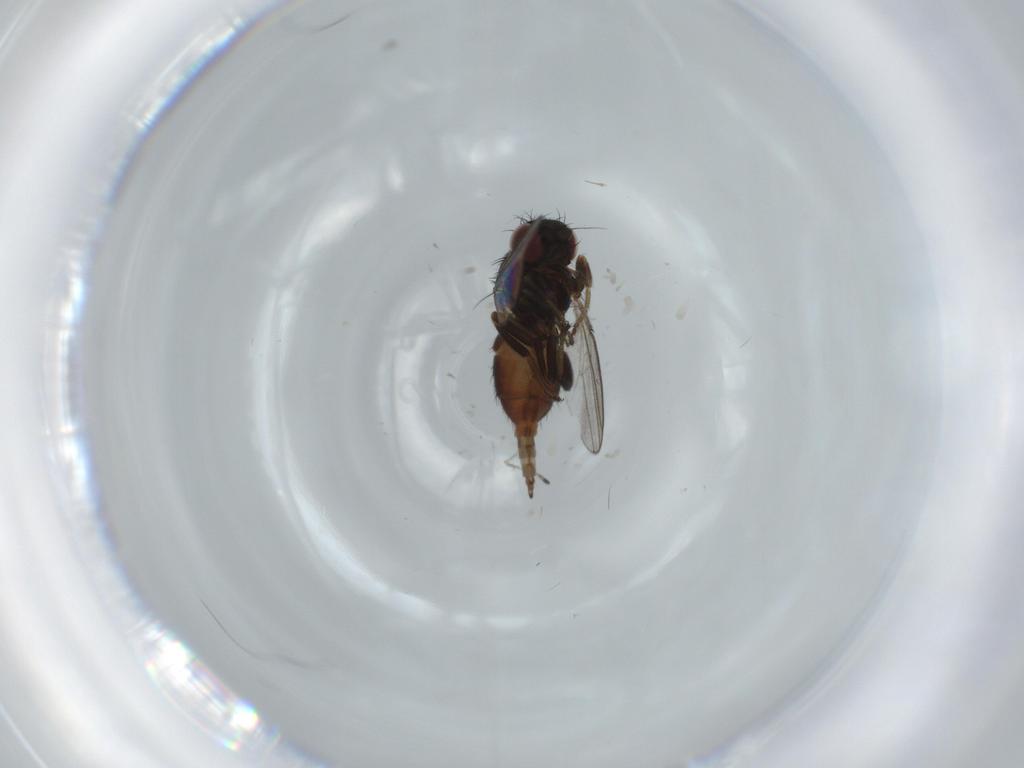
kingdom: Animalia
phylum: Arthropoda
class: Insecta
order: Diptera
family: Milichiidae
